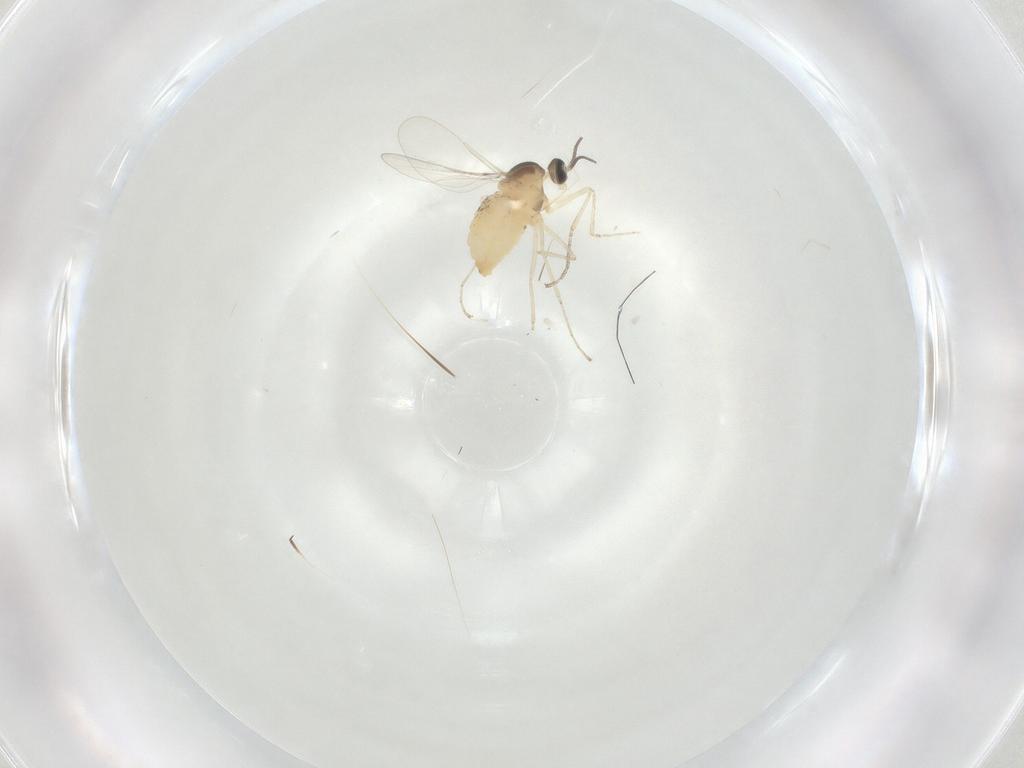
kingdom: Animalia
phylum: Arthropoda
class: Insecta
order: Diptera
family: Cecidomyiidae
